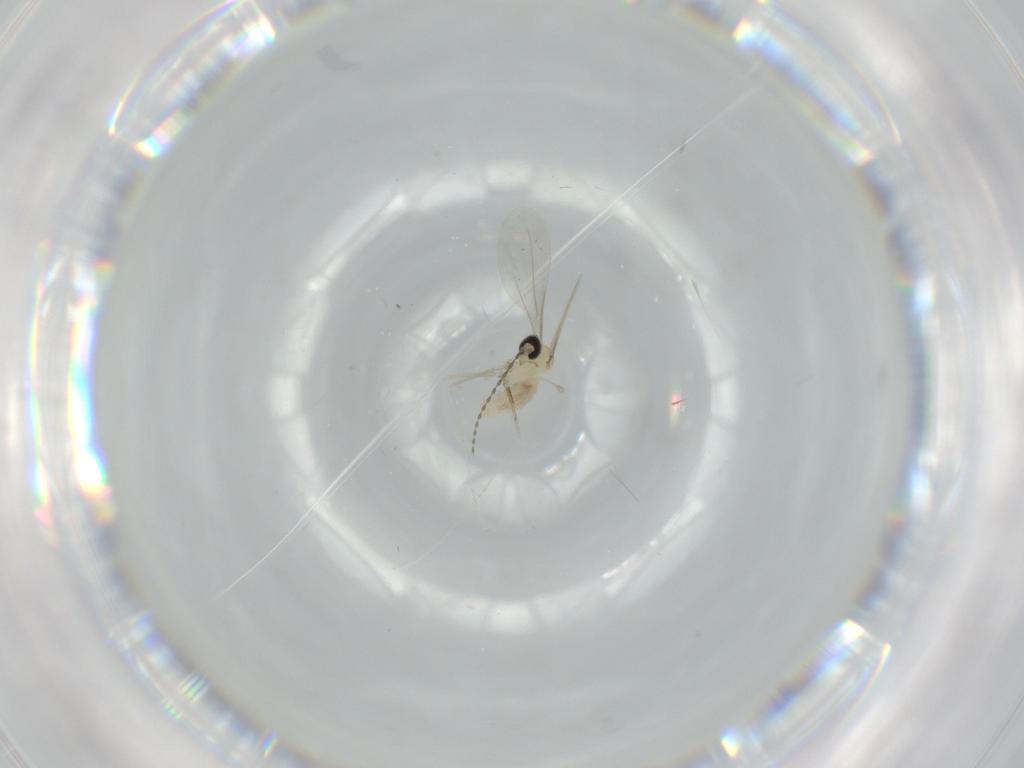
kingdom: Animalia
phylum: Arthropoda
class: Insecta
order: Diptera
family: Cecidomyiidae
